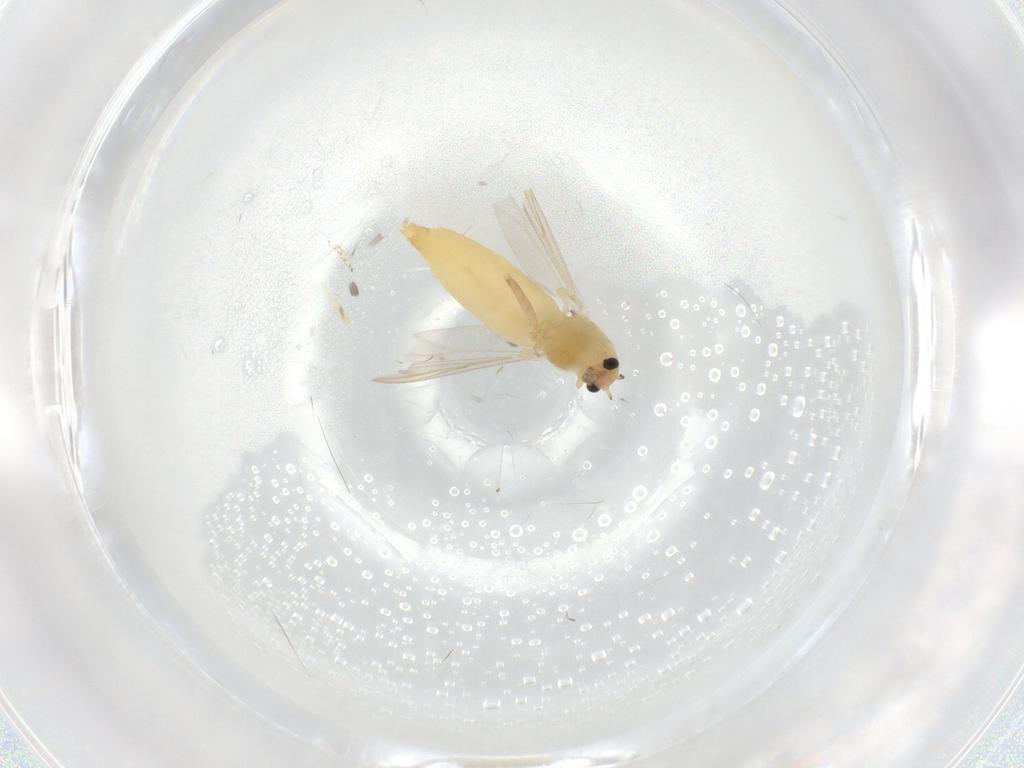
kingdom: Animalia
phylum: Arthropoda
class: Insecta
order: Diptera
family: Chironomidae
